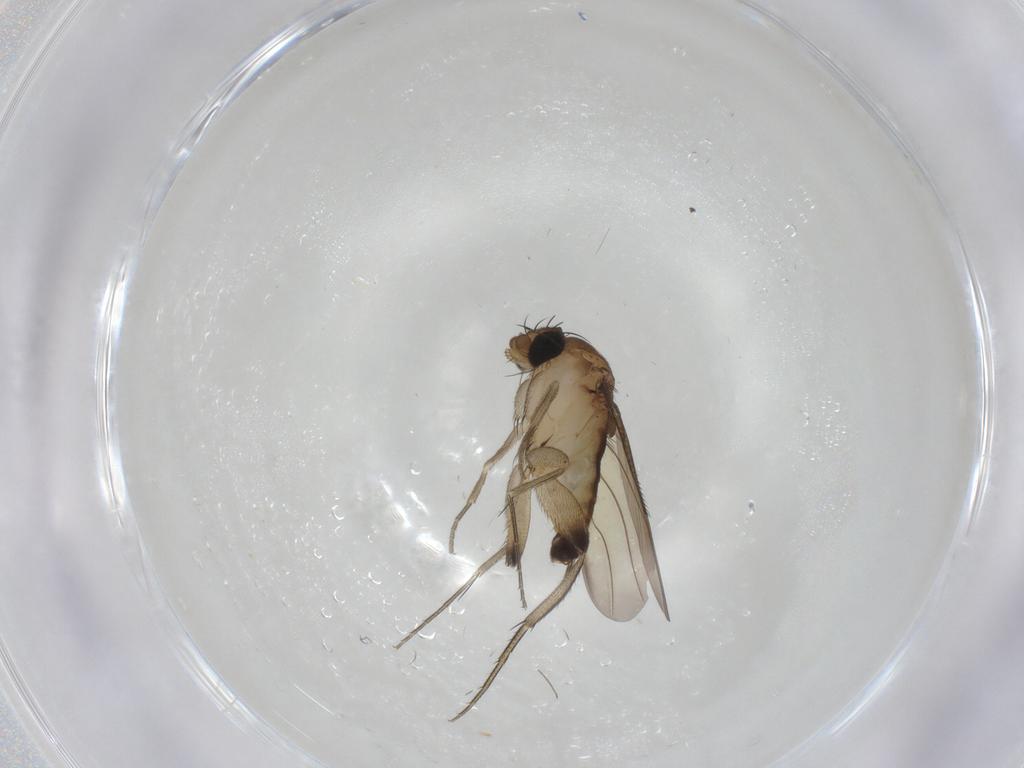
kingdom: Animalia
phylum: Arthropoda
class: Insecta
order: Diptera
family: Phoridae
